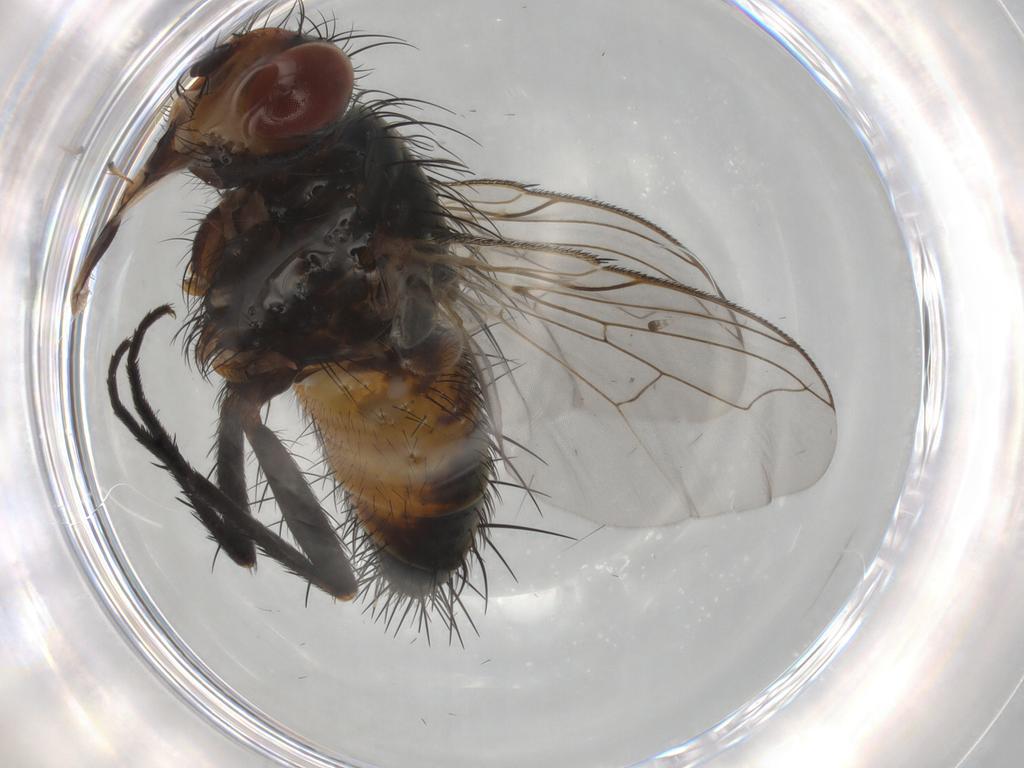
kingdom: Animalia
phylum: Arthropoda
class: Insecta
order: Diptera
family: Tachinidae
